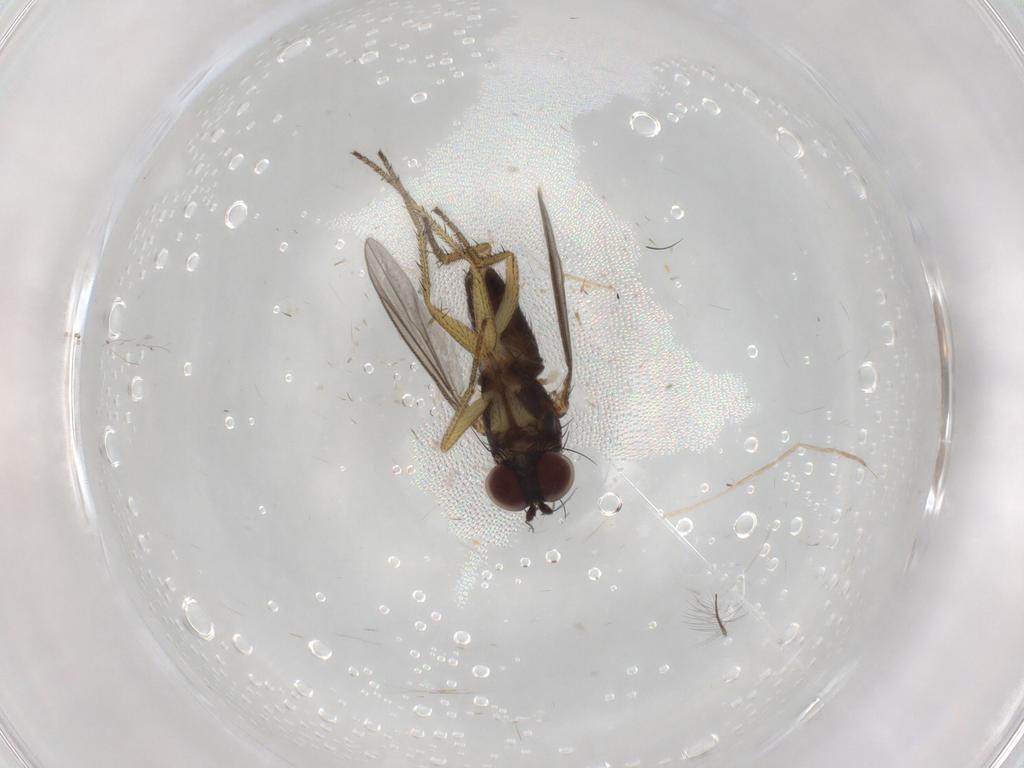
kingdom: Animalia
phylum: Arthropoda
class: Insecta
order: Diptera
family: Dolichopodidae
